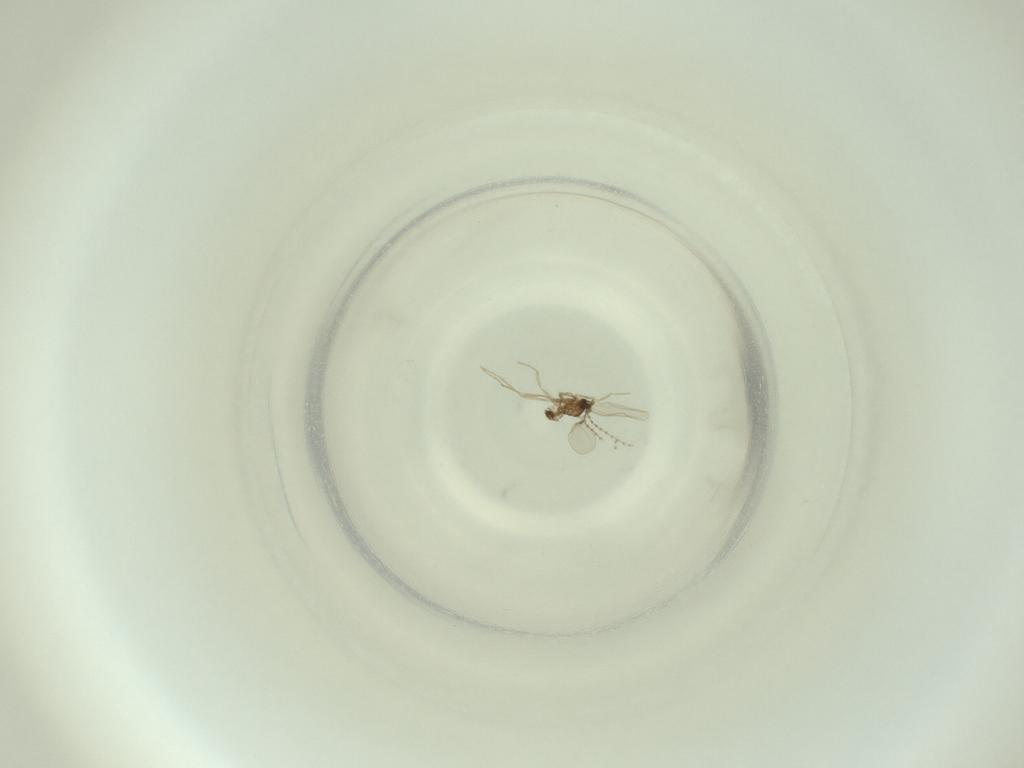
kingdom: Animalia
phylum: Arthropoda
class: Insecta
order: Diptera
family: Cecidomyiidae
